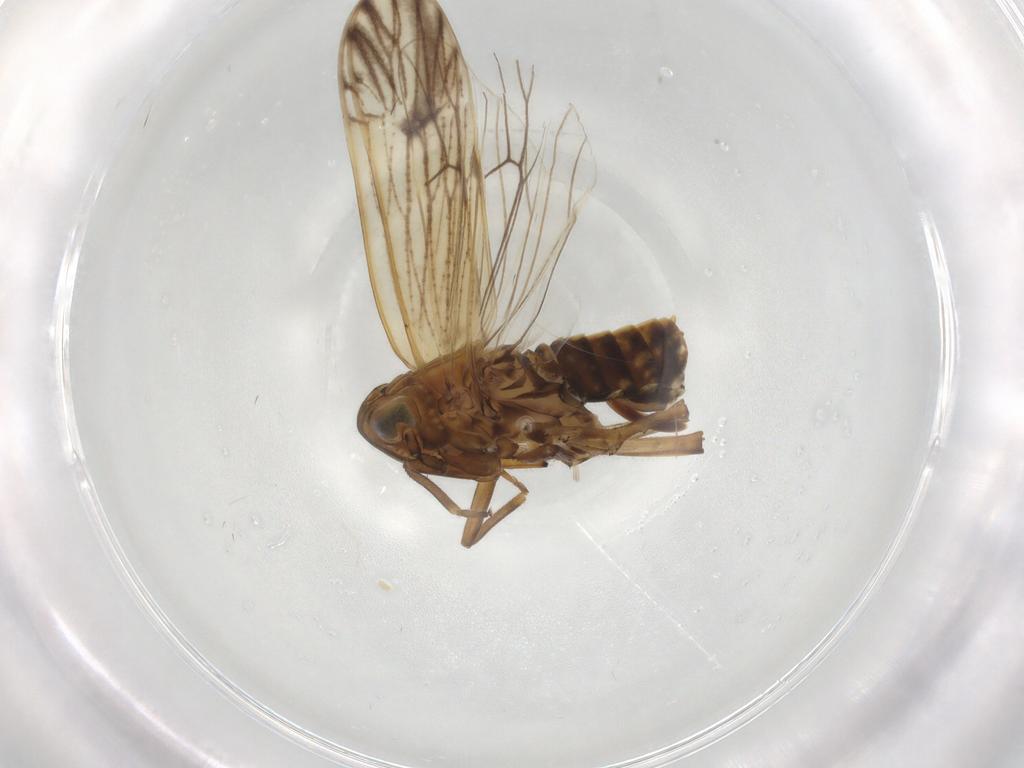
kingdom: Animalia
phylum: Arthropoda
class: Insecta
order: Hemiptera
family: Delphacidae
